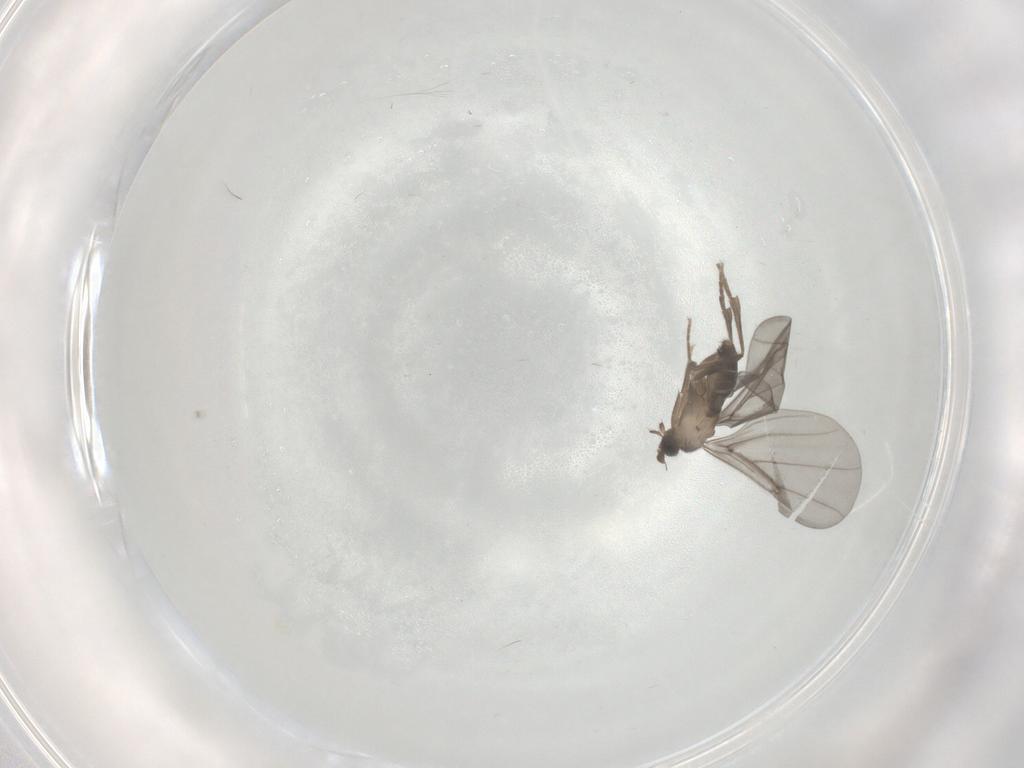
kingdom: Animalia
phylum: Arthropoda
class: Insecta
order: Diptera
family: Phoridae
